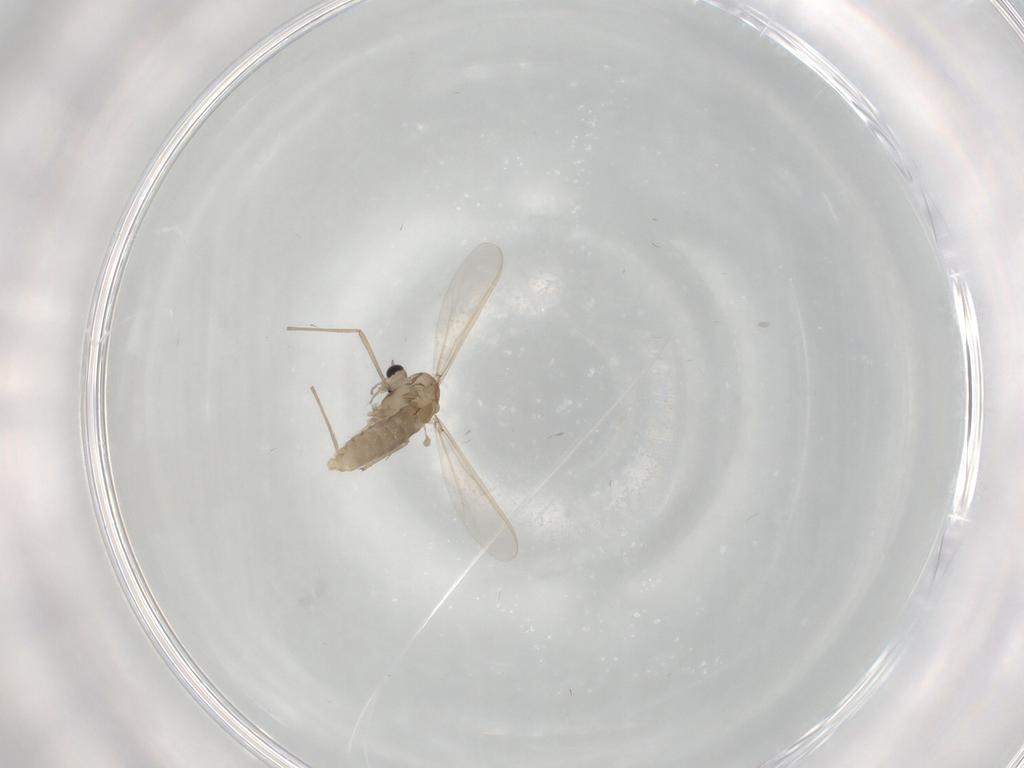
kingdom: Animalia
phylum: Arthropoda
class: Insecta
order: Diptera
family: Chironomidae
